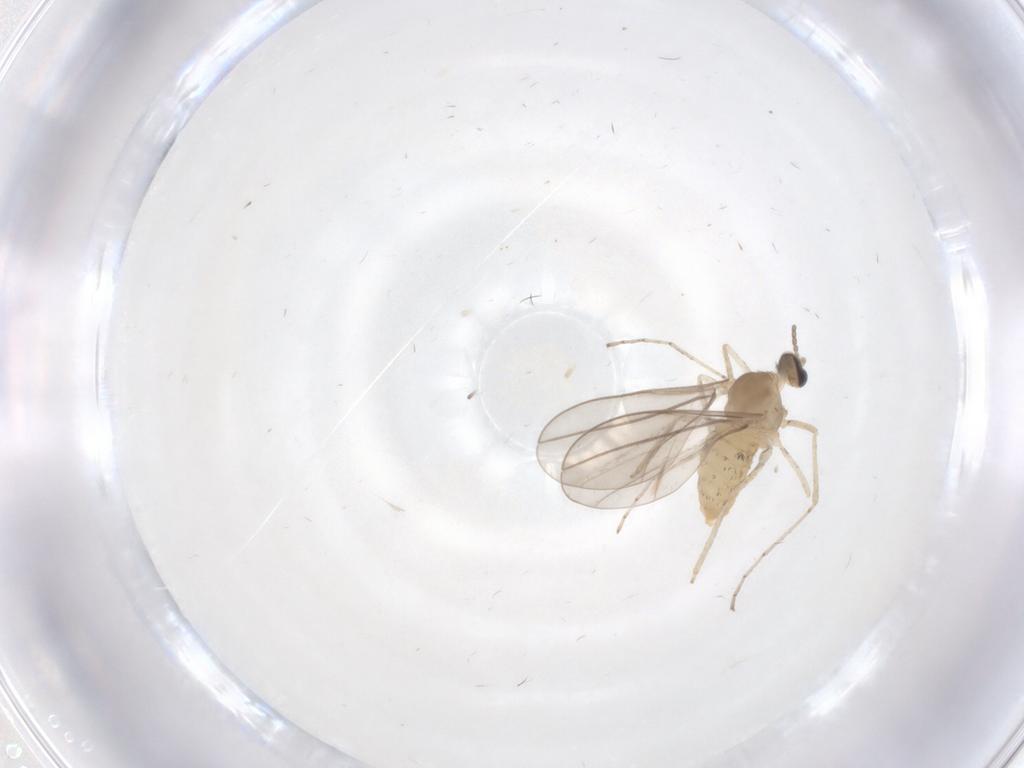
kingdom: Animalia
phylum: Arthropoda
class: Insecta
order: Diptera
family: Cecidomyiidae
